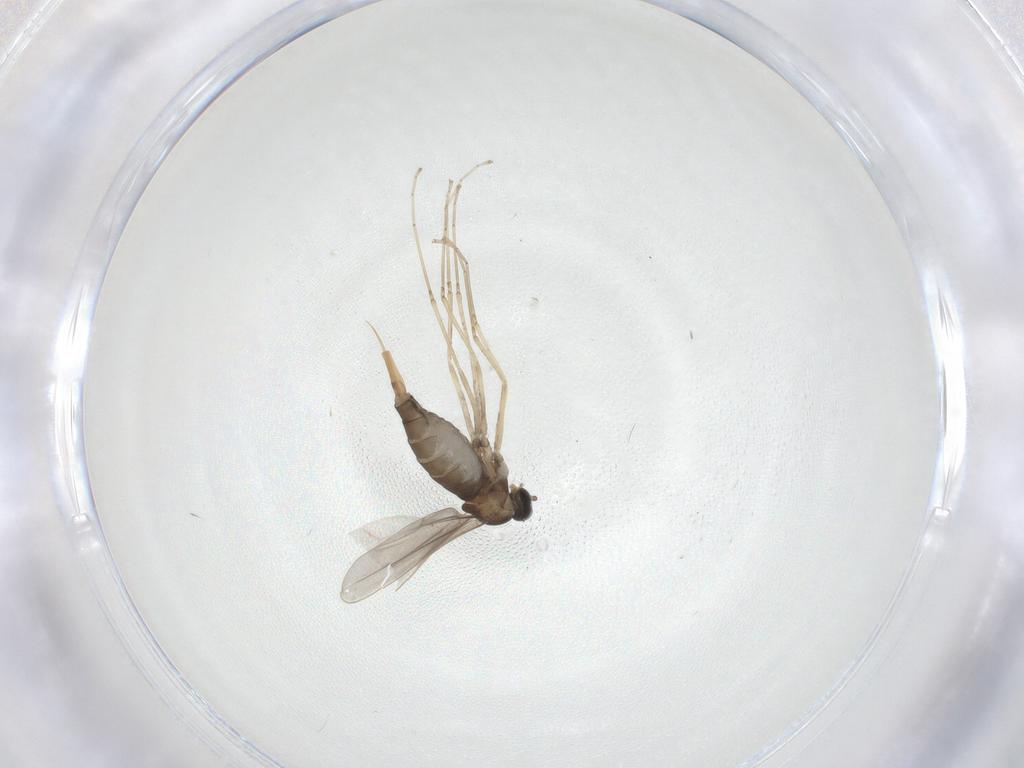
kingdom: Animalia
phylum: Arthropoda
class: Insecta
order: Diptera
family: Cecidomyiidae
